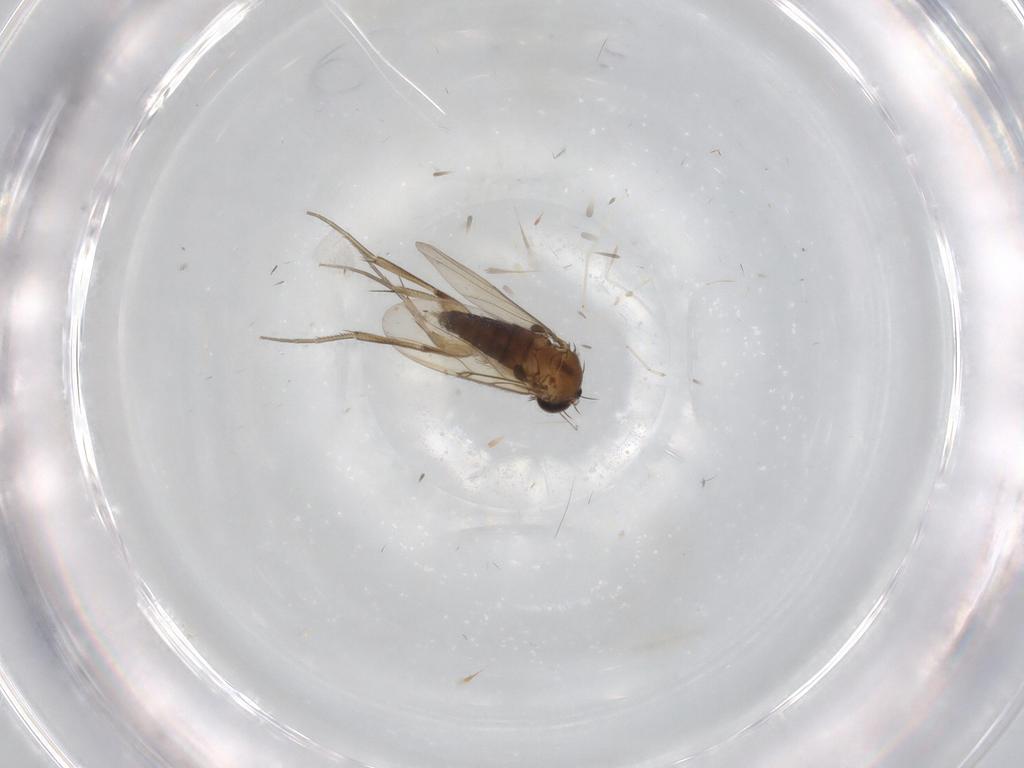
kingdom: Animalia
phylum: Arthropoda
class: Insecta
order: Diptera
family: Phoridae
